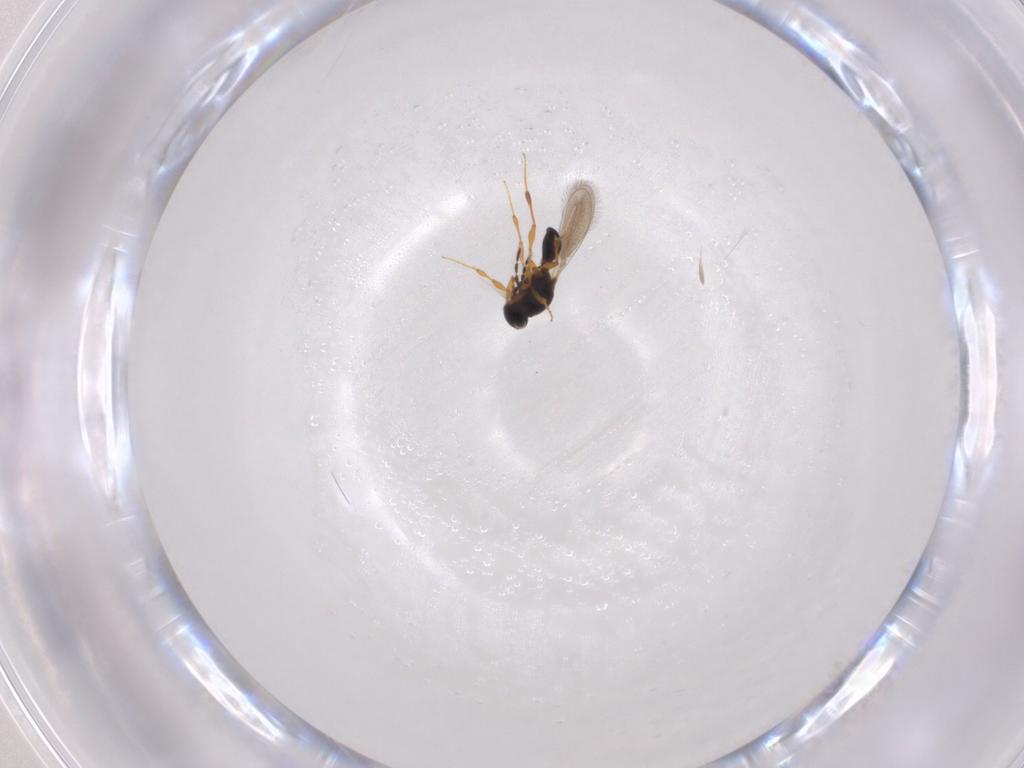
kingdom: Animalia
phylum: Arthropoda
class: Insecta
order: Hymenoptera
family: Platygastridae
